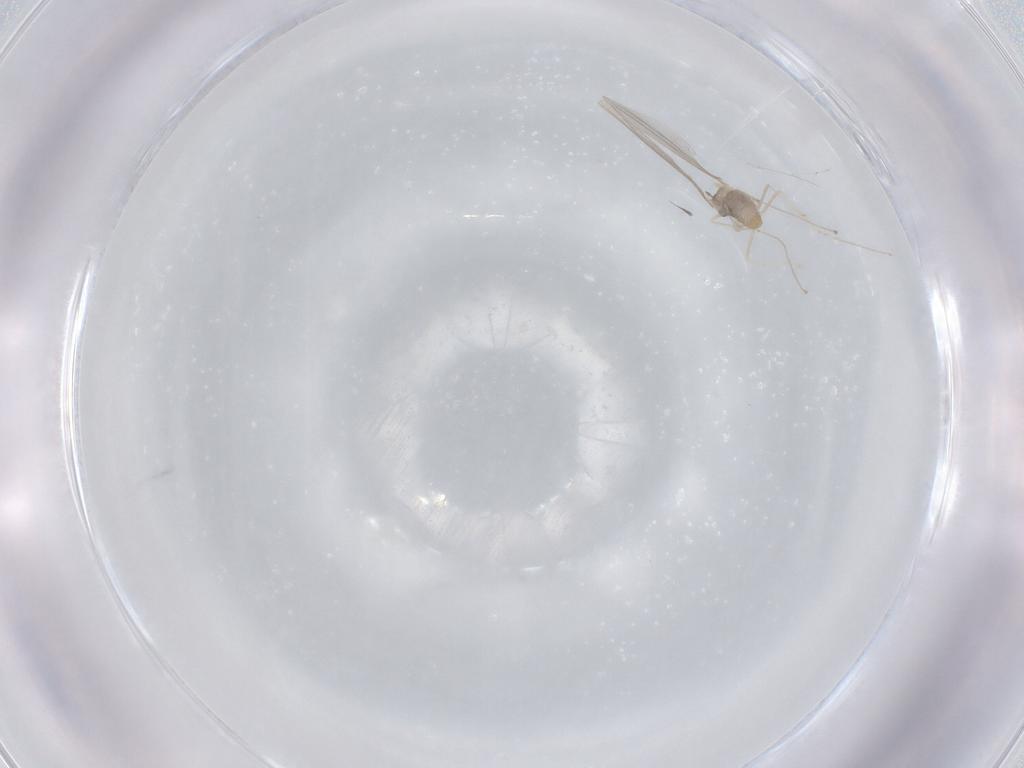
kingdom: Animalia
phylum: Arthropoda
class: Insecta
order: Diptera
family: Cecidomyiidae
